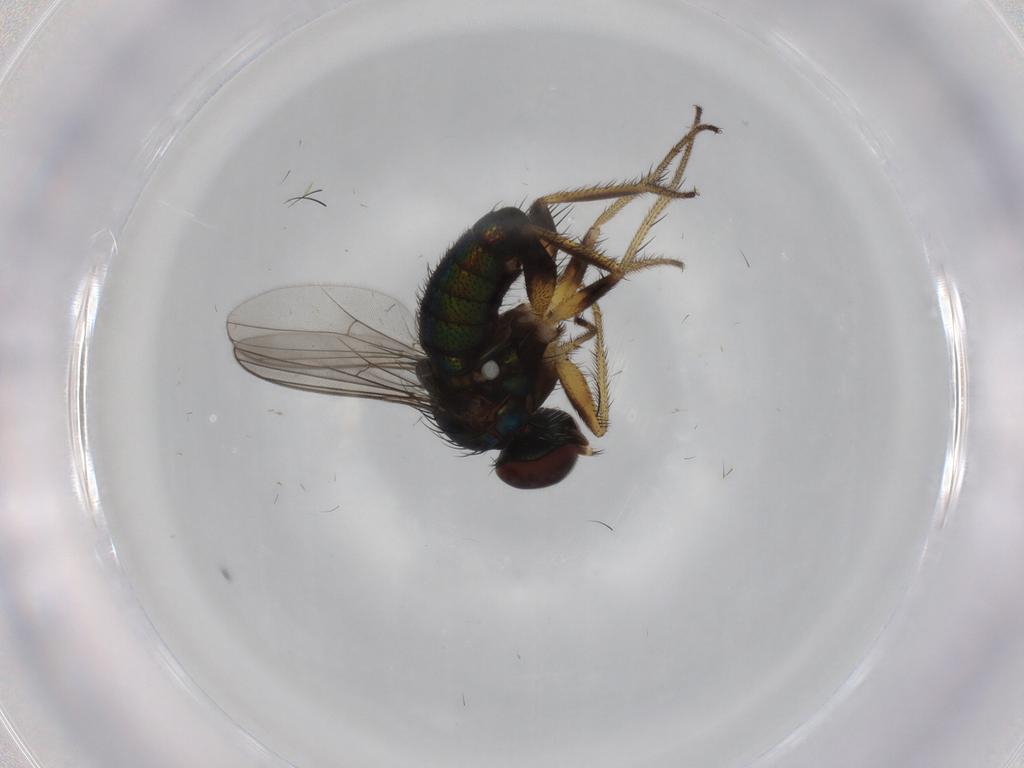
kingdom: Animalia
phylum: Arthropoda
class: Insecta
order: Diptera
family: Dolichopodidae
